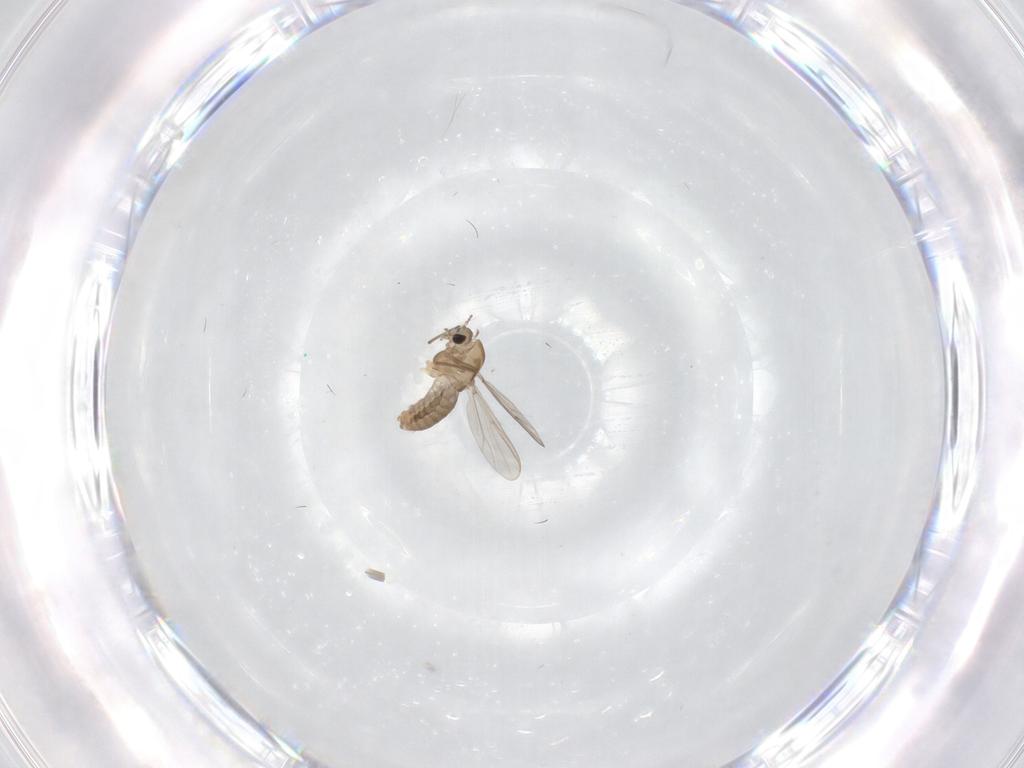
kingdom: Animalia
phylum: Arthropoda
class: Insecta
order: Diptera
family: Chironomidae
